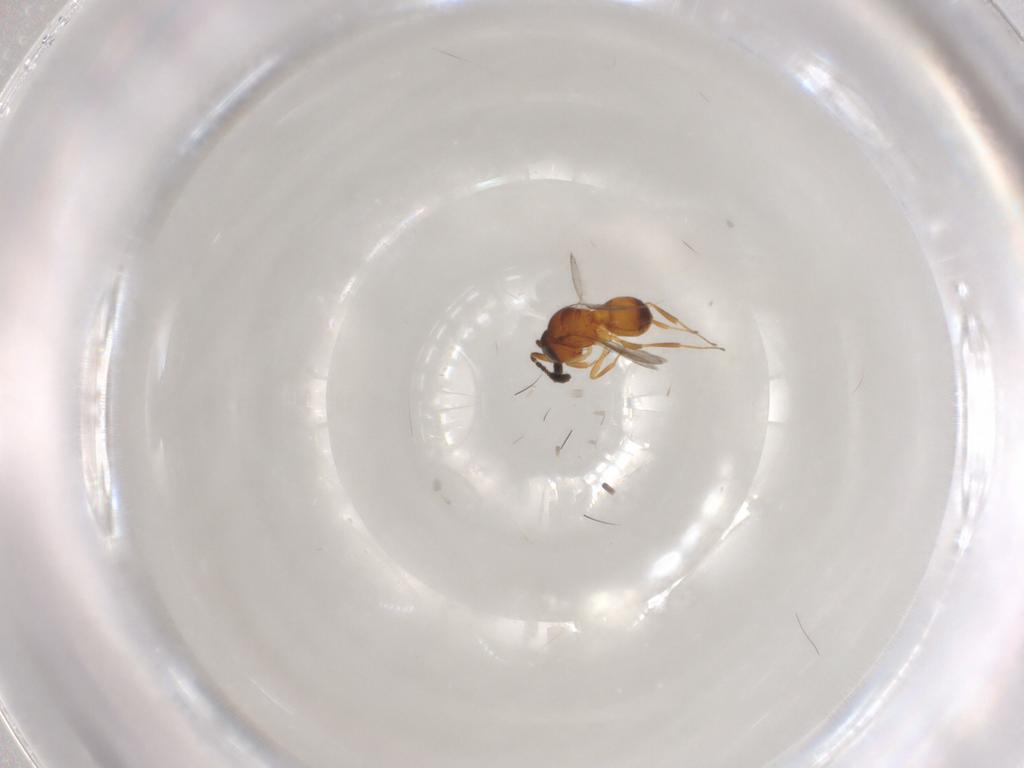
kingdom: Animalia
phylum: Arthropoda
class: Insecta
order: Hymenoptera
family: Scelionidae
